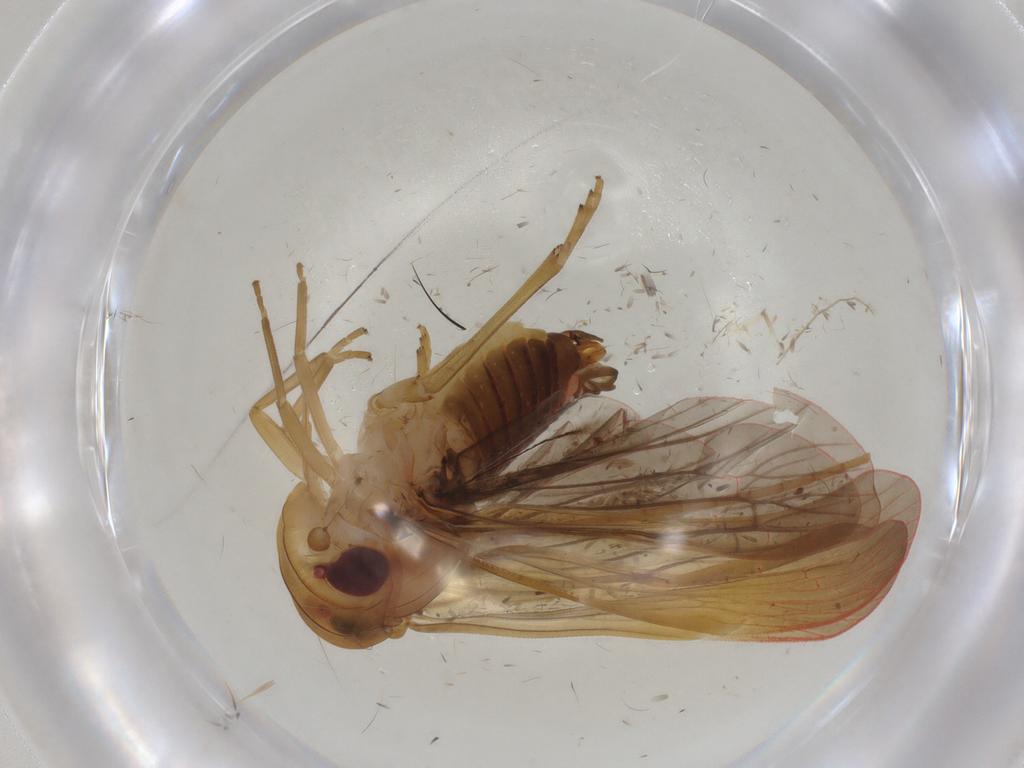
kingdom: Animalia
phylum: Arthropoda
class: Insecta
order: Hemiptera
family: Achilidae
